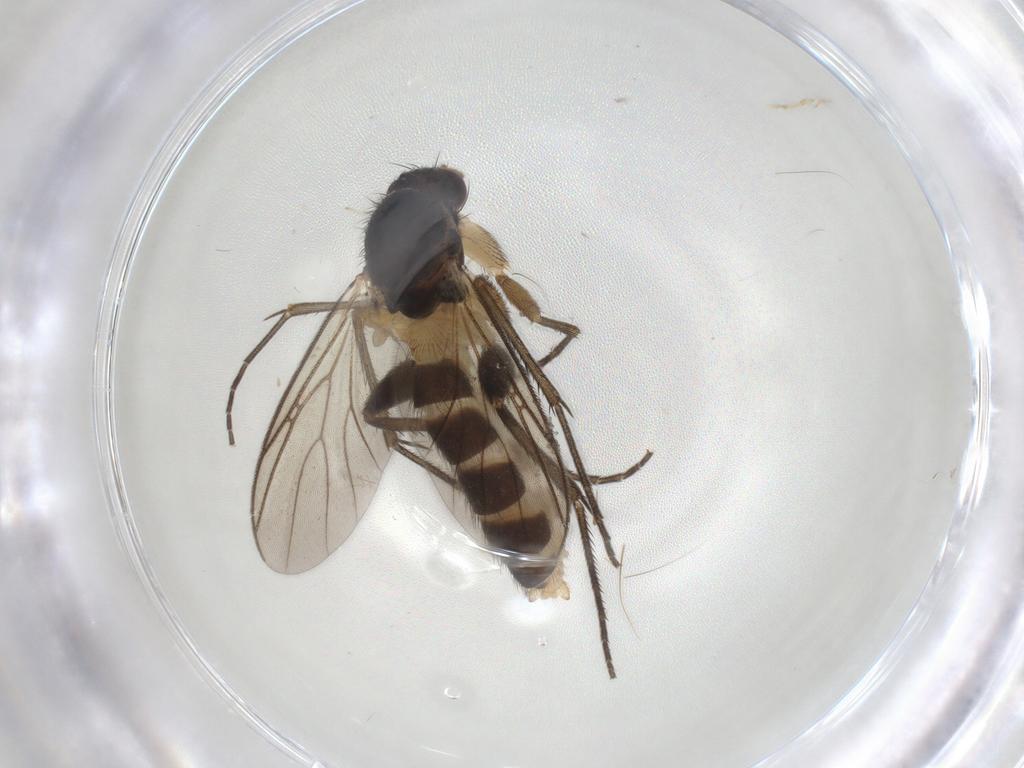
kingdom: Animalia
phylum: Arthropoda
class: Insecta
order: Diptera
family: Mycetophilidae
